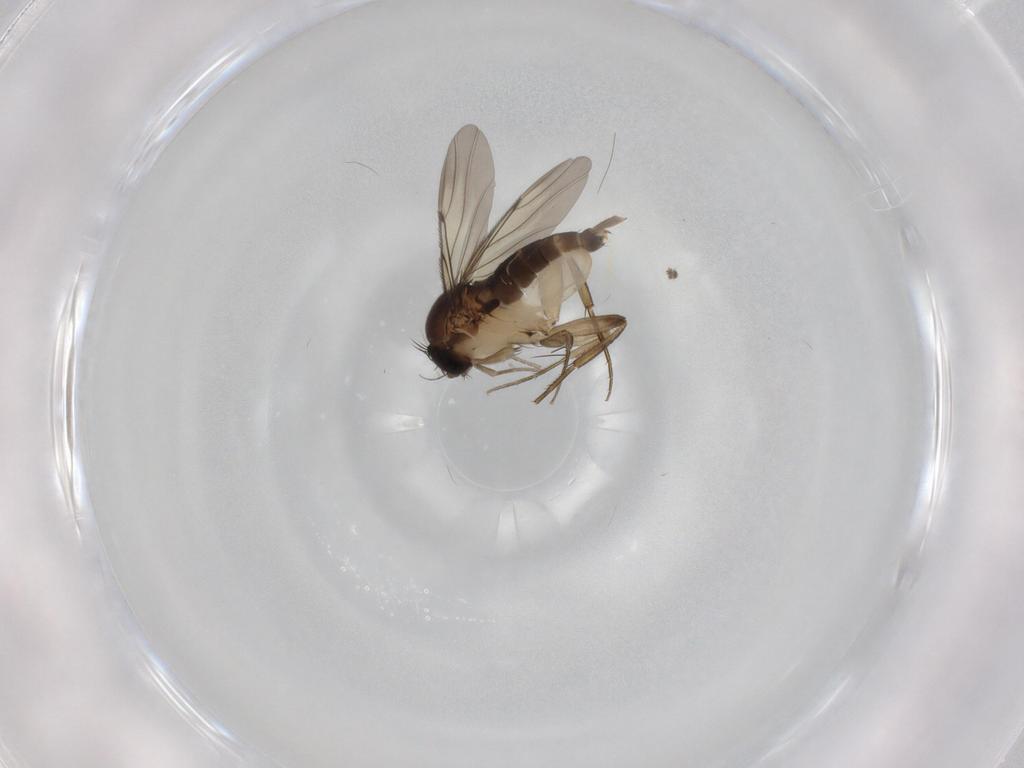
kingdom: Animalia
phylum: Arthropoda
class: Insecta
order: Diptera
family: Phoridae
